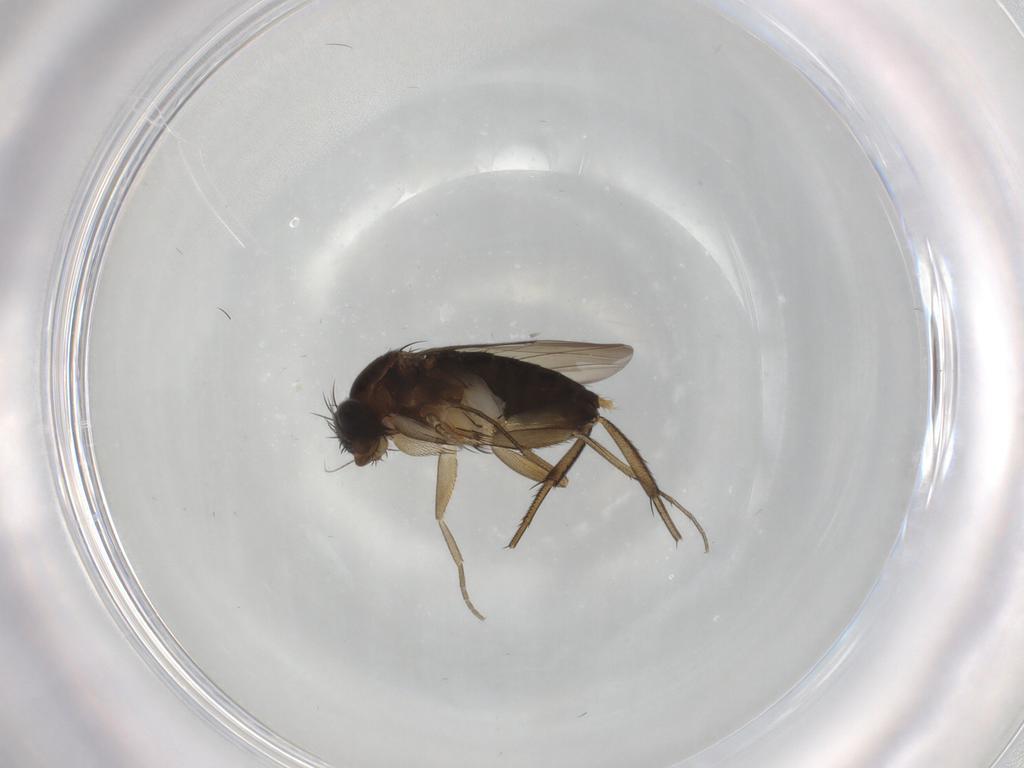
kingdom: Animalia
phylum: Arthropoda
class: Insecta
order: Diptera
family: Phoridae
